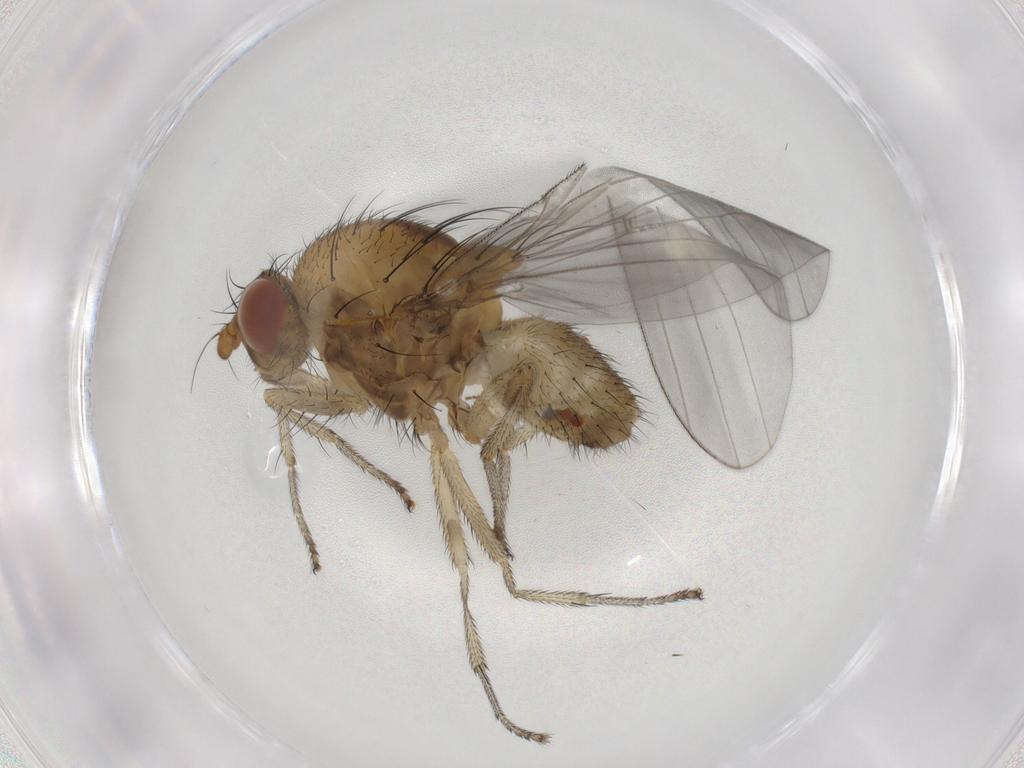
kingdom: Animalia
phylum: Arthropoda
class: Insecta
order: Diptera
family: Lauxaniidae
